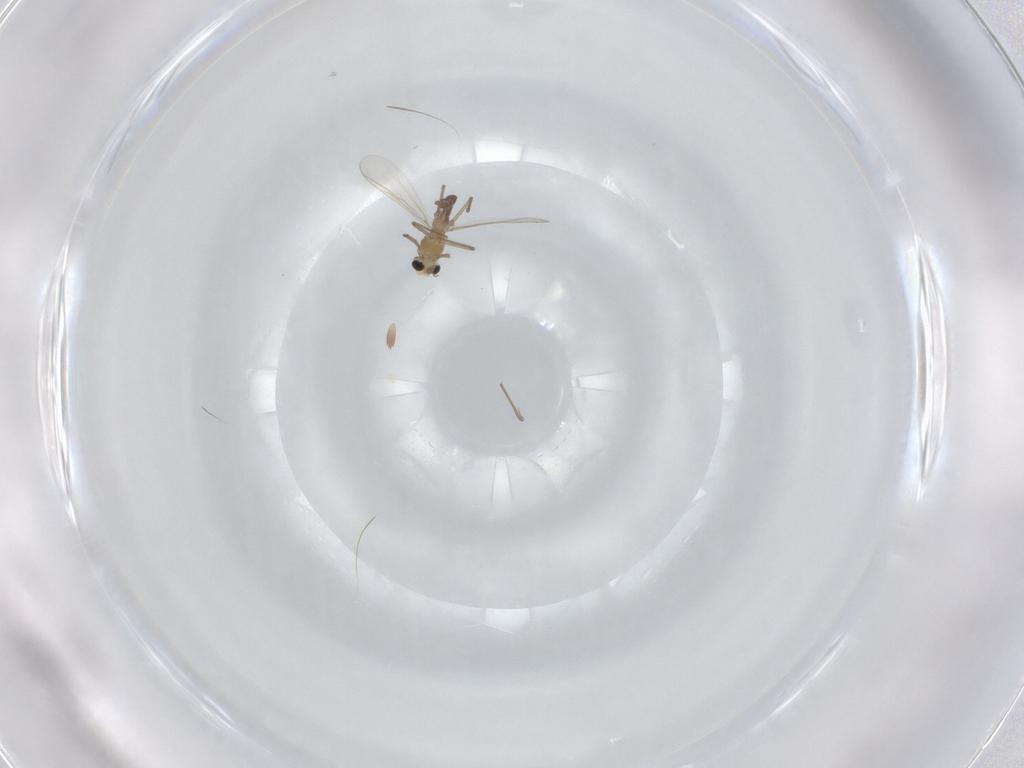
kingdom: Animalia
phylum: Arthropoda
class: Insecta
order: Diptera
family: Chironomidae
